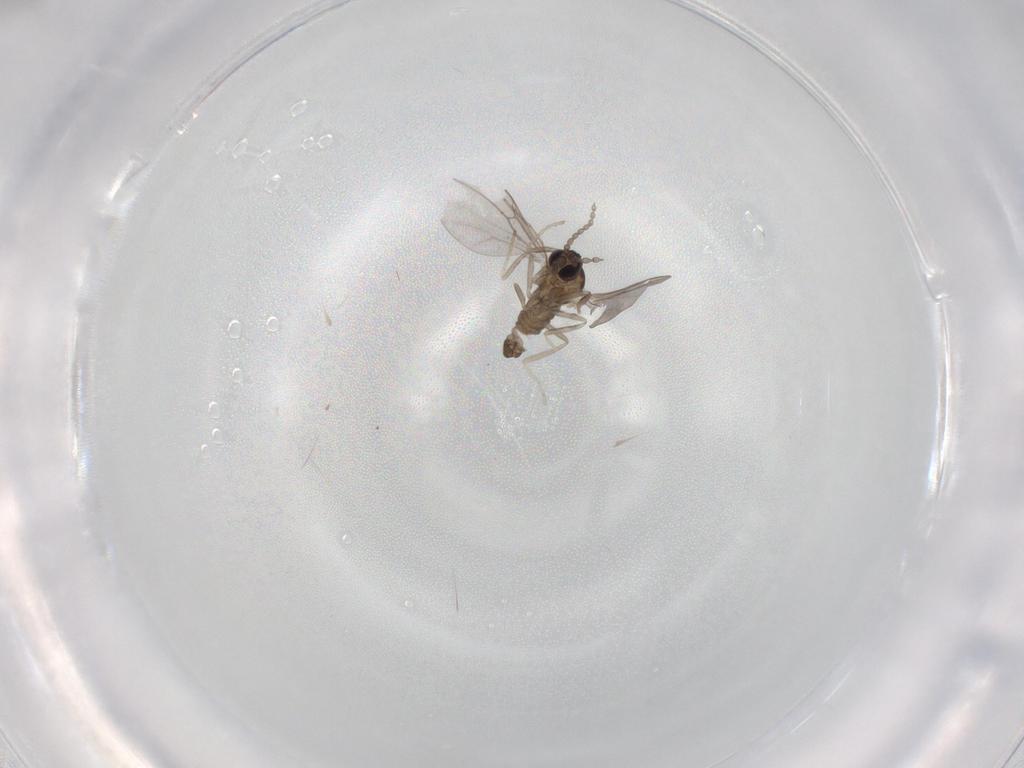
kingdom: Animalia
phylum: Arthropoda
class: Insecta
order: Diptera
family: Cecidomyiidae
